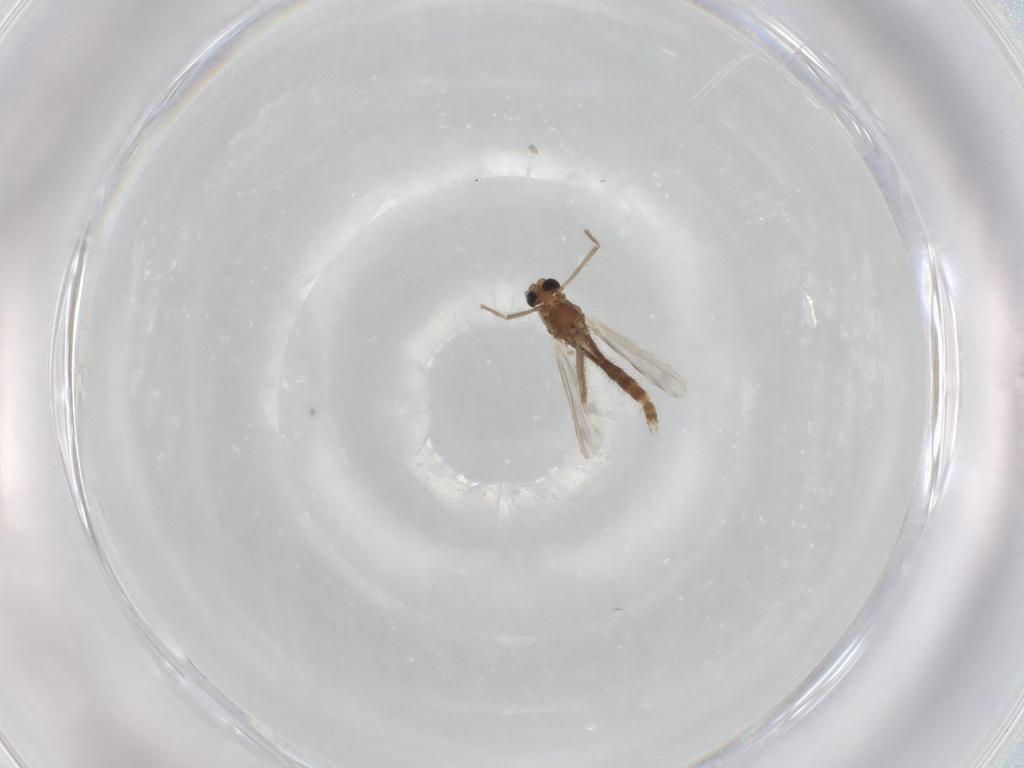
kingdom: Animalia
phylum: Arthropoda
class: Insecta
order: Diptera
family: Chironomidae
